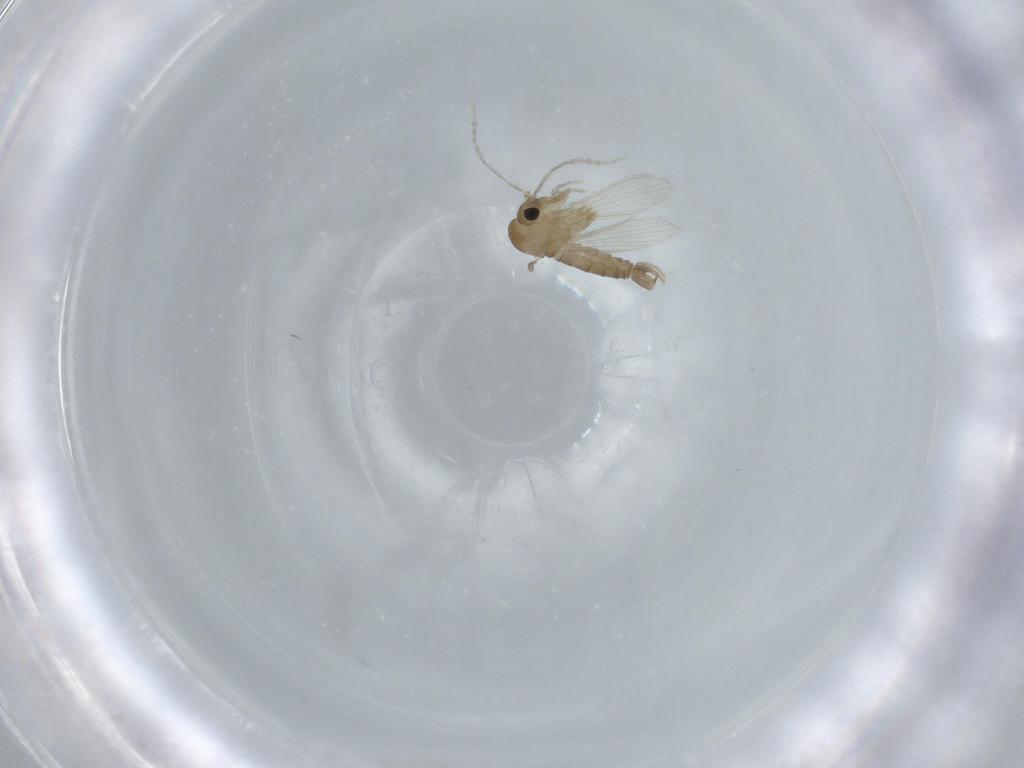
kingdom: Animalia
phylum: Arthropoda
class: Insecta
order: Diptera
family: Psychodidae
